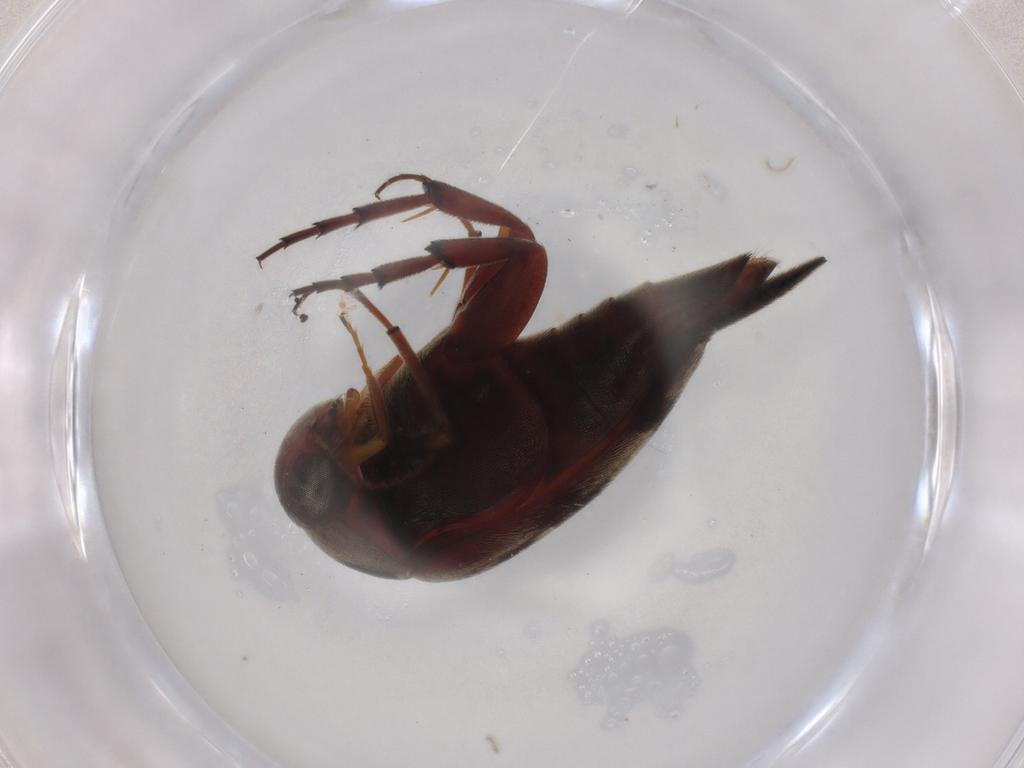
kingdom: Animalia
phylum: Arthropoda
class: Insecta
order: Coleoptera
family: Mordellidae
